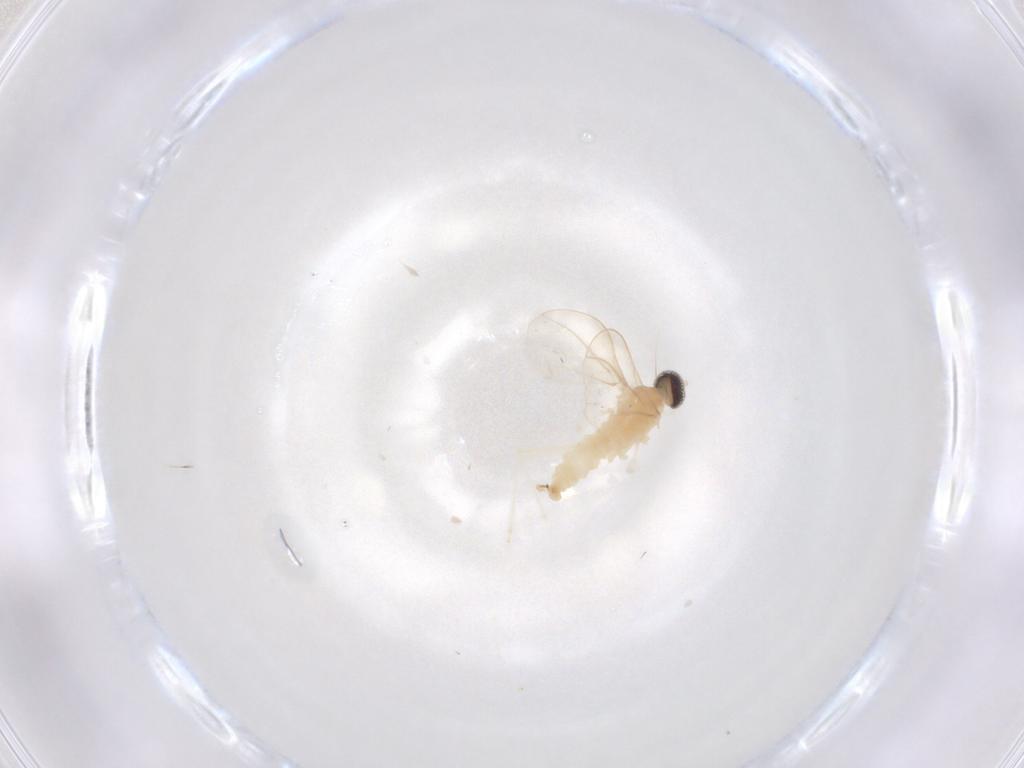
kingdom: Animalia
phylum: Arthropoda
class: Insecta
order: Diptera
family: Cecidomyiidae
